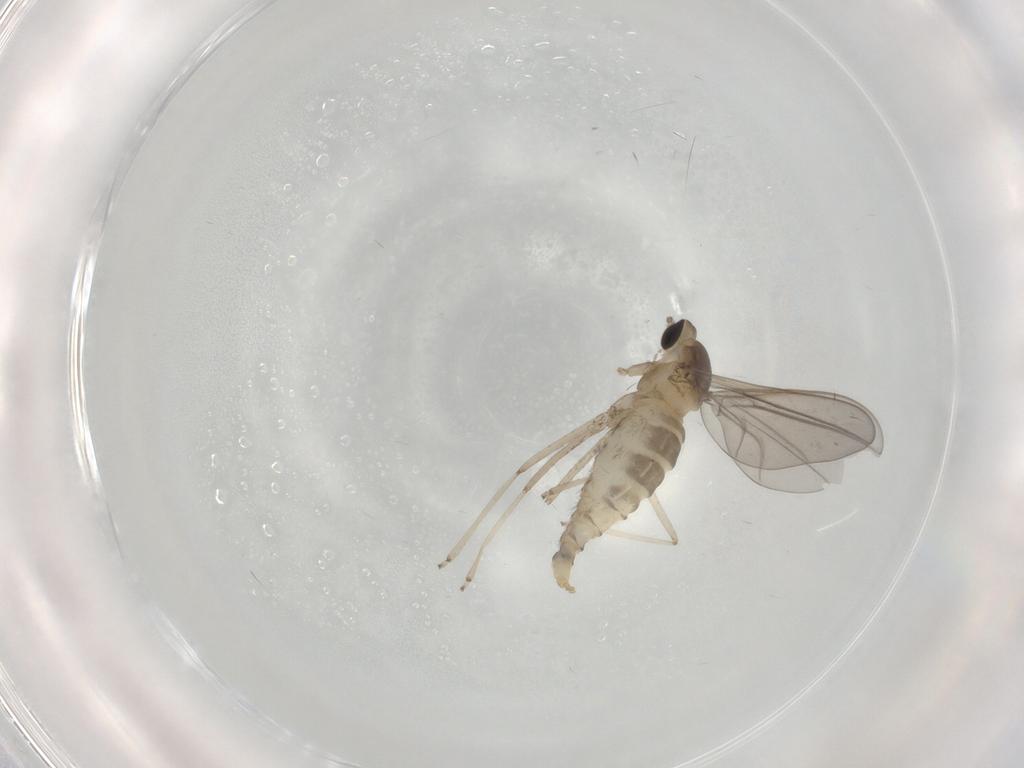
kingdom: Animalia
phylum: Arthropoda
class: Insecta
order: Diptera
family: Cecidomyiidae
